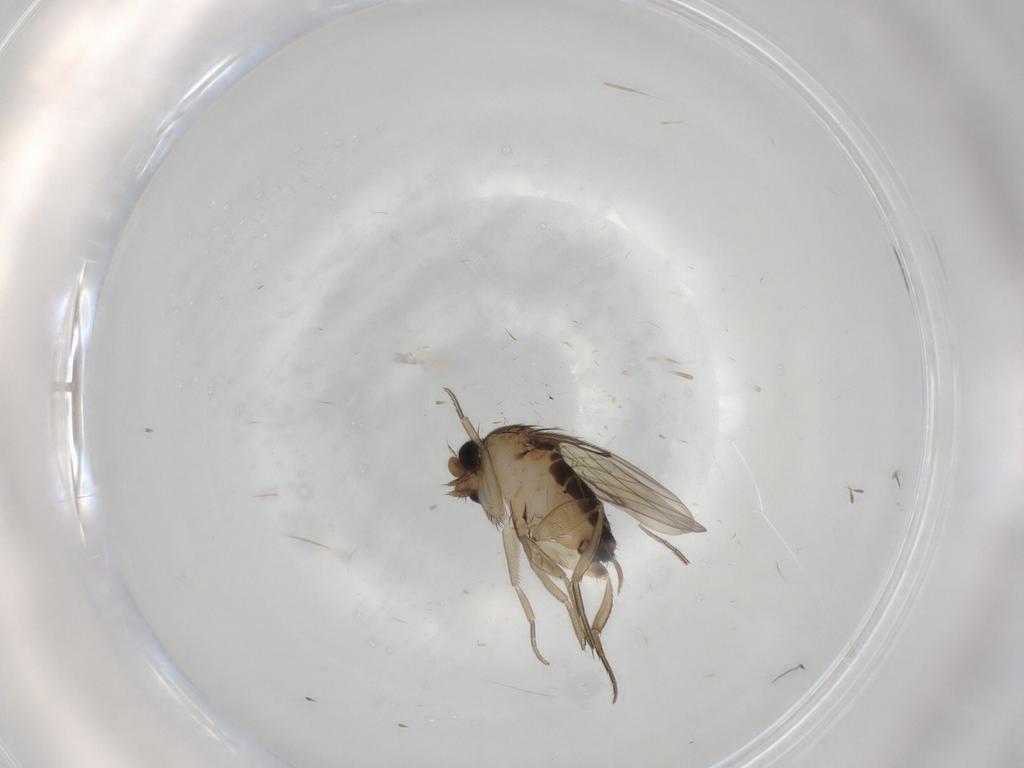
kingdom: Animalia
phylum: Arthropoda
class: Insecta
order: Diptera
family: Phoridae
